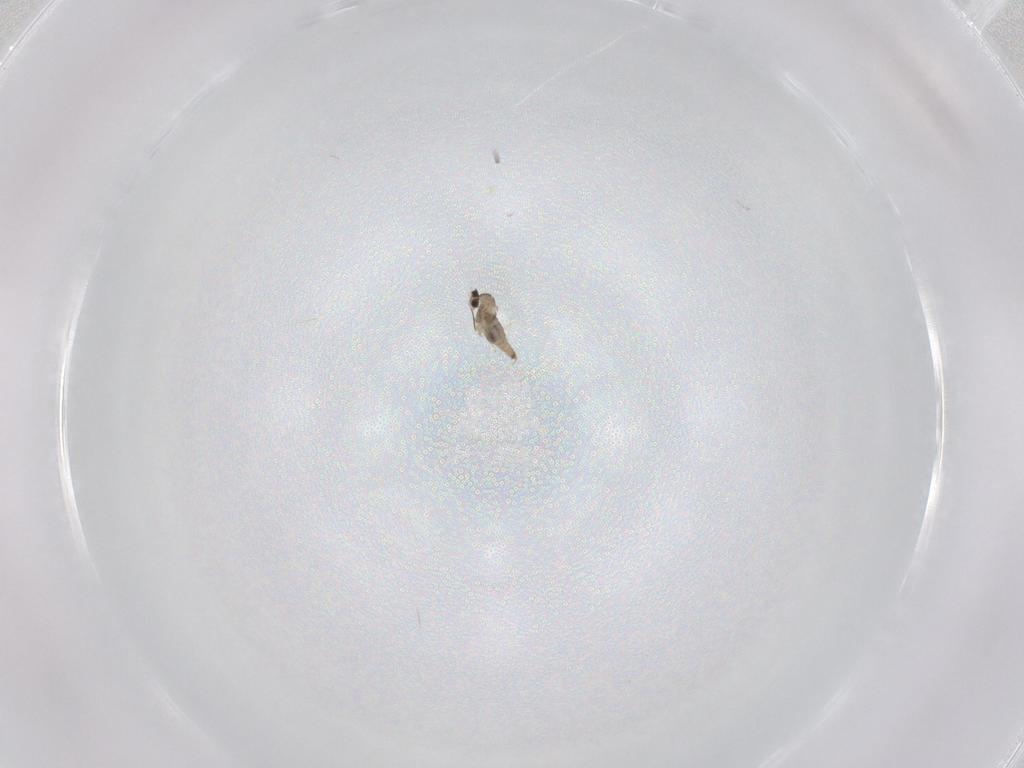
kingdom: Animalia
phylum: Arthropoda
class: Insecta
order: Diptera
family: Cecidomyiidae
